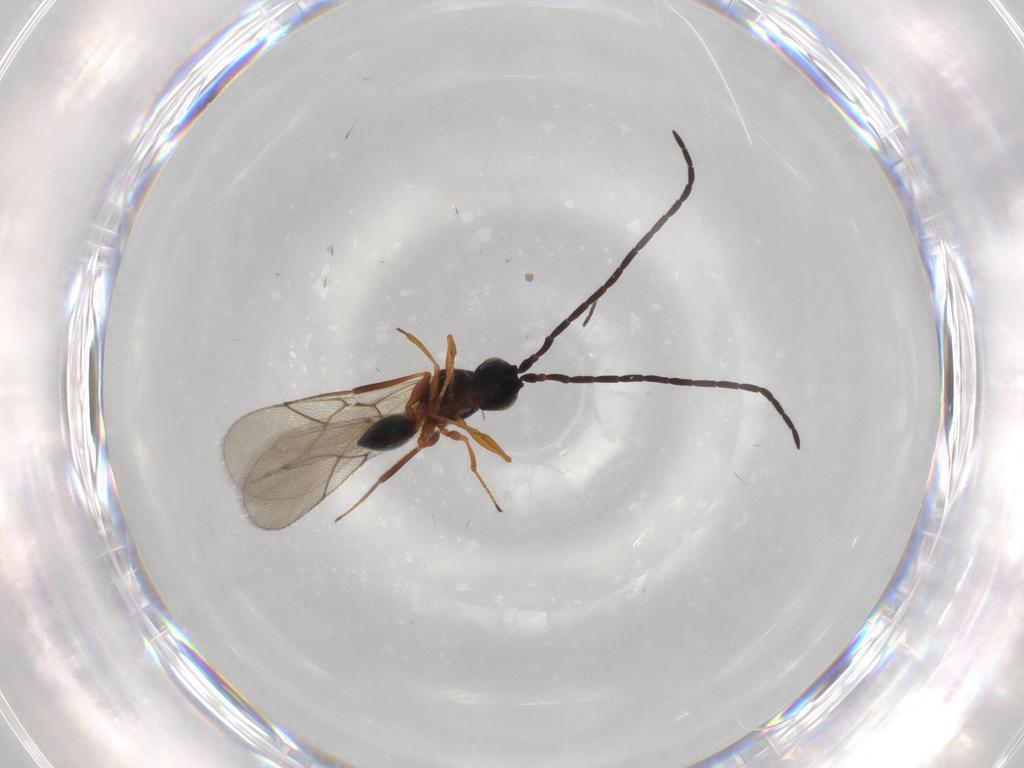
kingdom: Animalia
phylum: Arthropoda
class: Insecta
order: Hymenoptera
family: Figitidae
